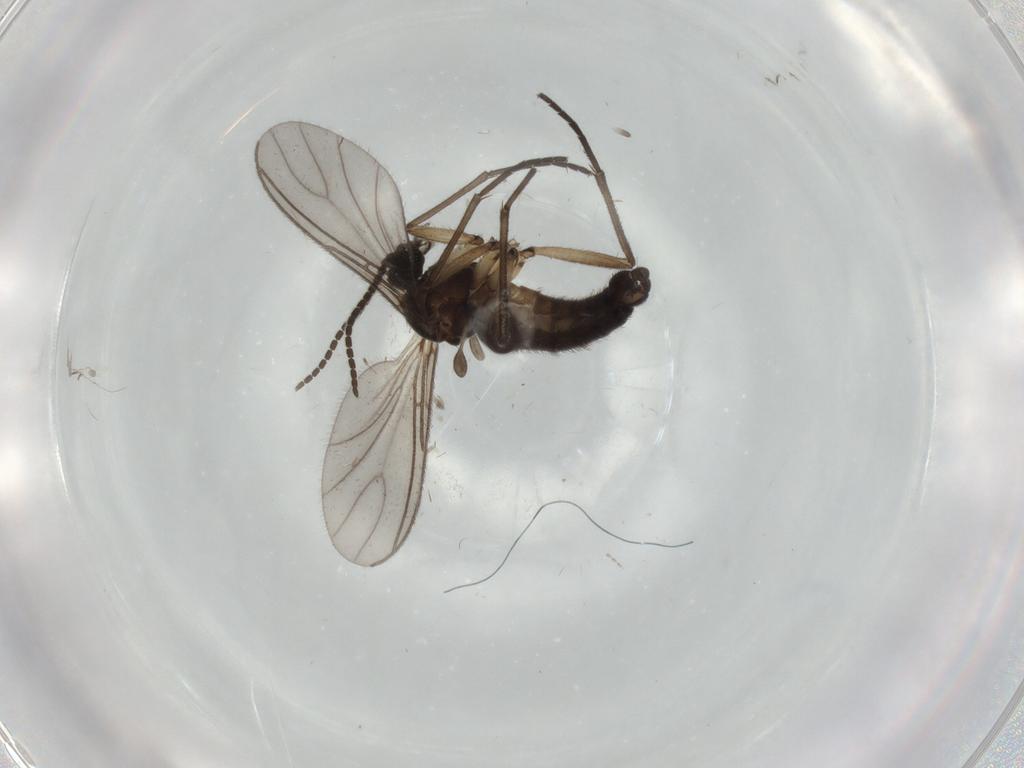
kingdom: Animalia
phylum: Arthropoda
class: Insecta
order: Diptera
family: Sciaridae
